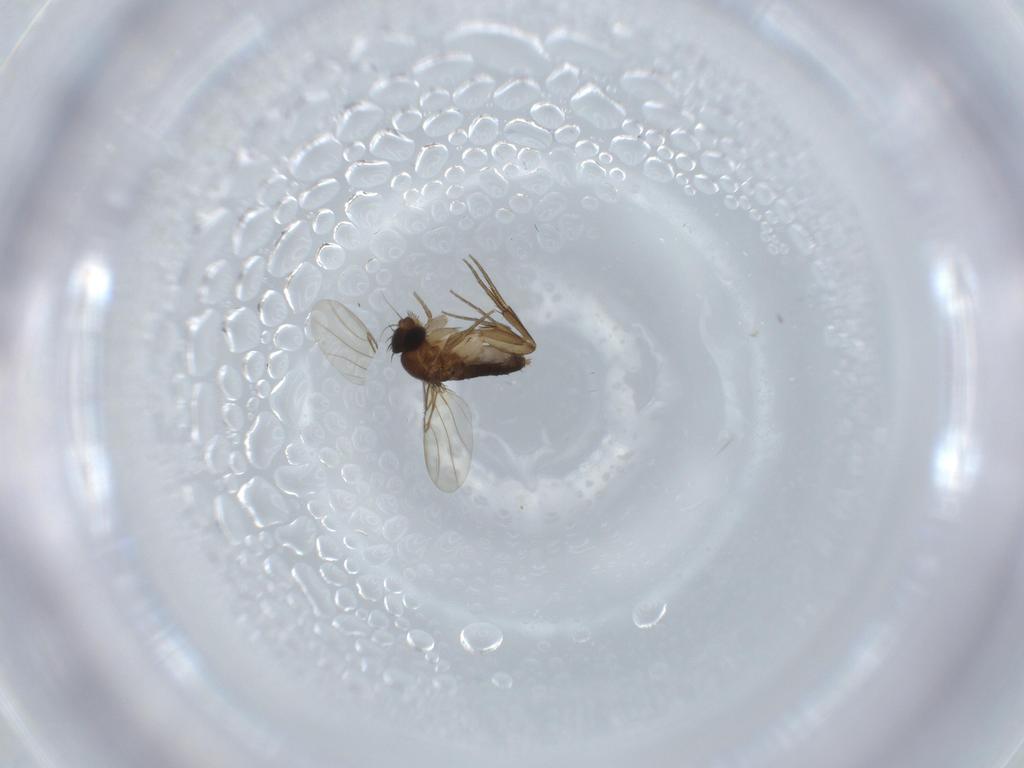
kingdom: Animalia
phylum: Arthropoda
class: Insecta
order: Diptera
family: Phoridae
